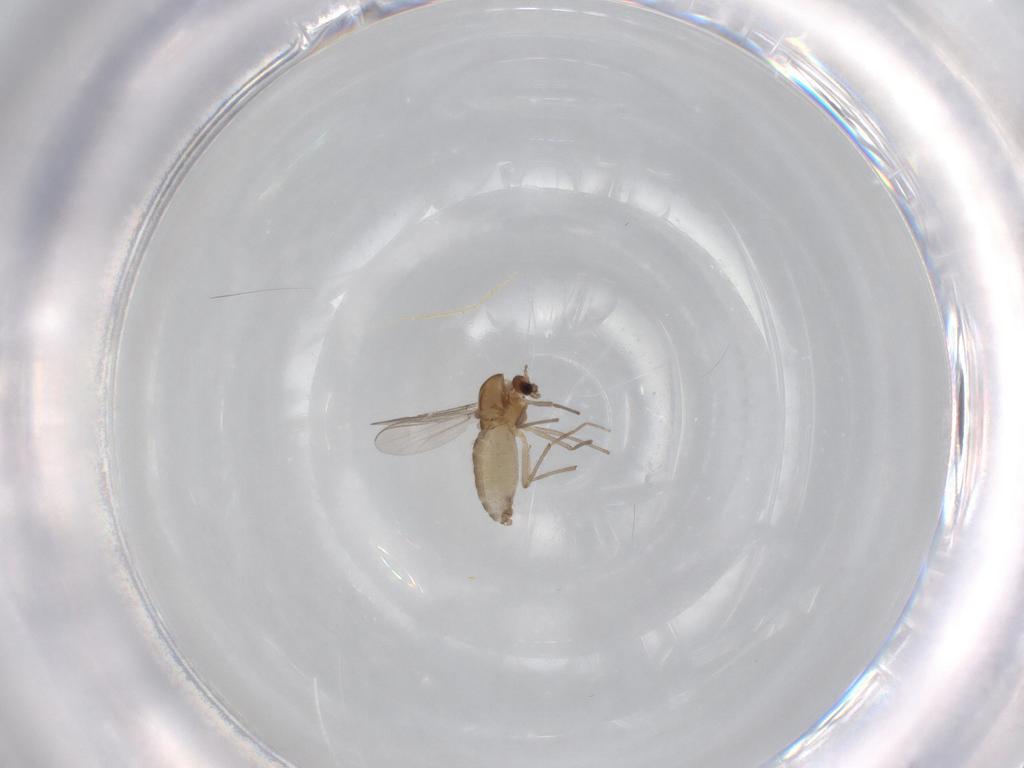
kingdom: Animalia
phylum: Arthropoda
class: Insecta
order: Diptera
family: Chironomidae
